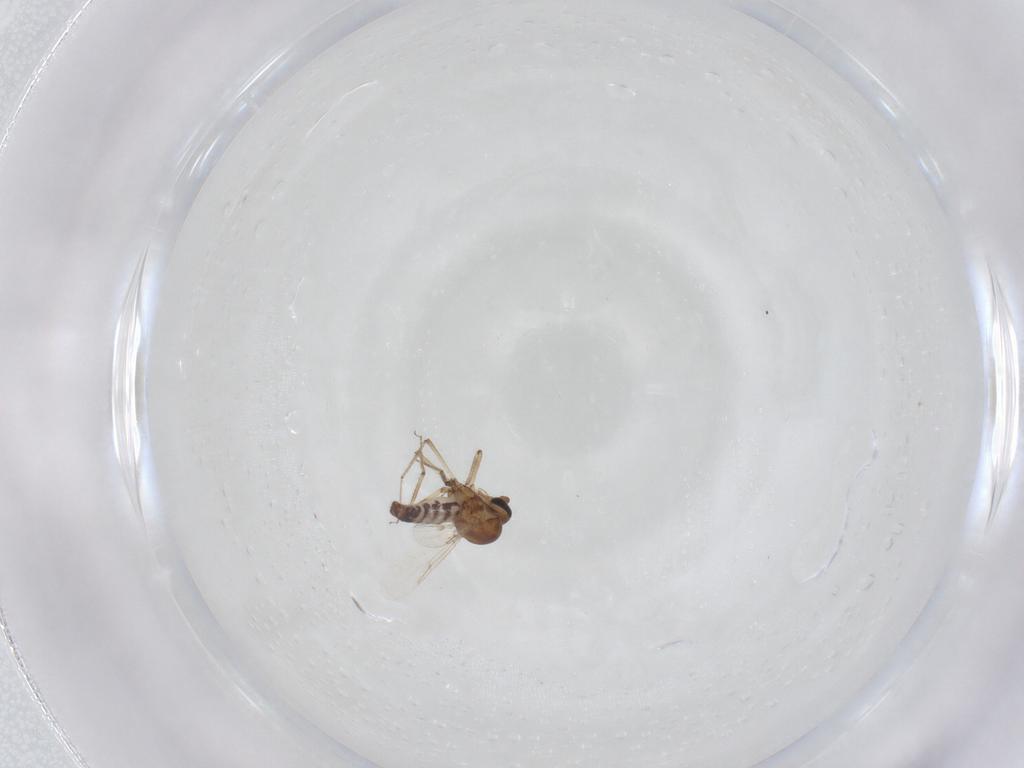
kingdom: Animalia
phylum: Arthropoda
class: Insecta
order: Diptera
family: Ceratopogonidae
